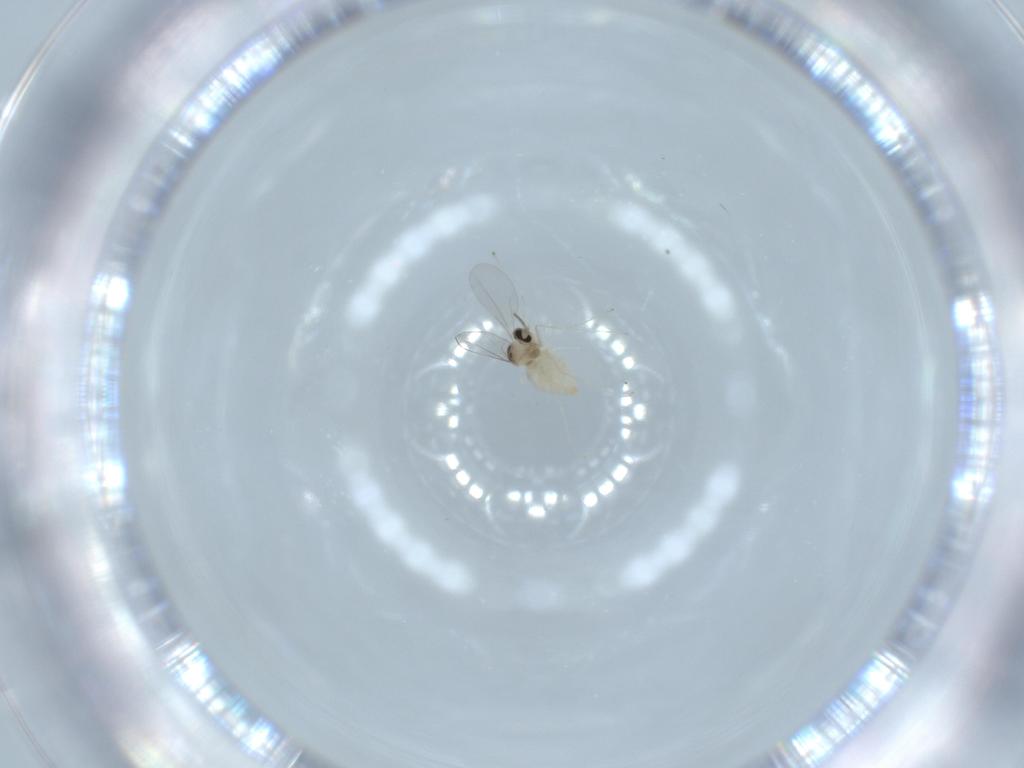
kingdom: Animalia
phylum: Arthropoda
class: Insecta
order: Diptera
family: Cecidomyiidae
